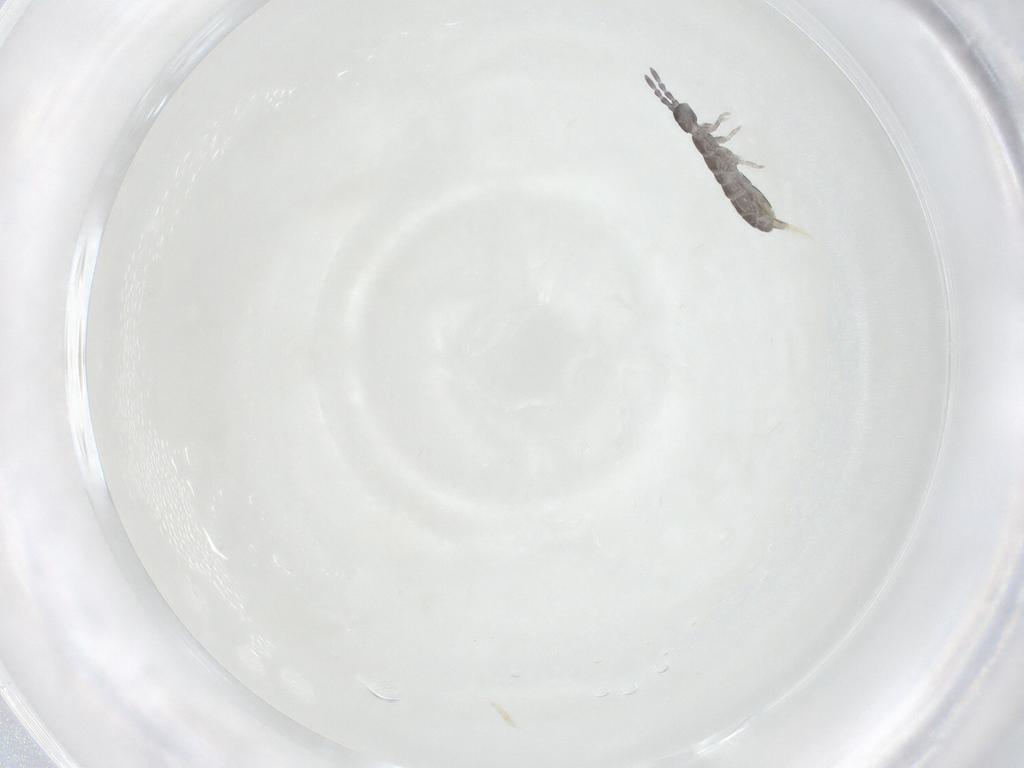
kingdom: Animalia
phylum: Arthropoda
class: Collembola
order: Entomobryomorpha
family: Isotomidae
